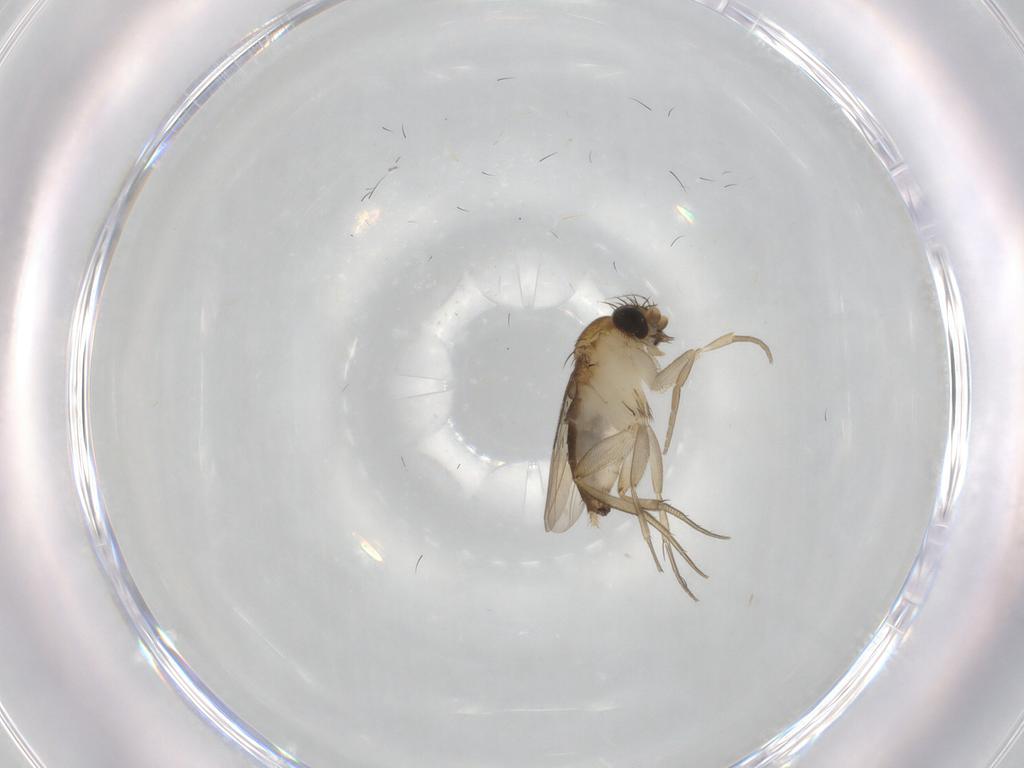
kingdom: Animalia
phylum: Arthropoda
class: Insecta
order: Diptera
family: Phoridae
